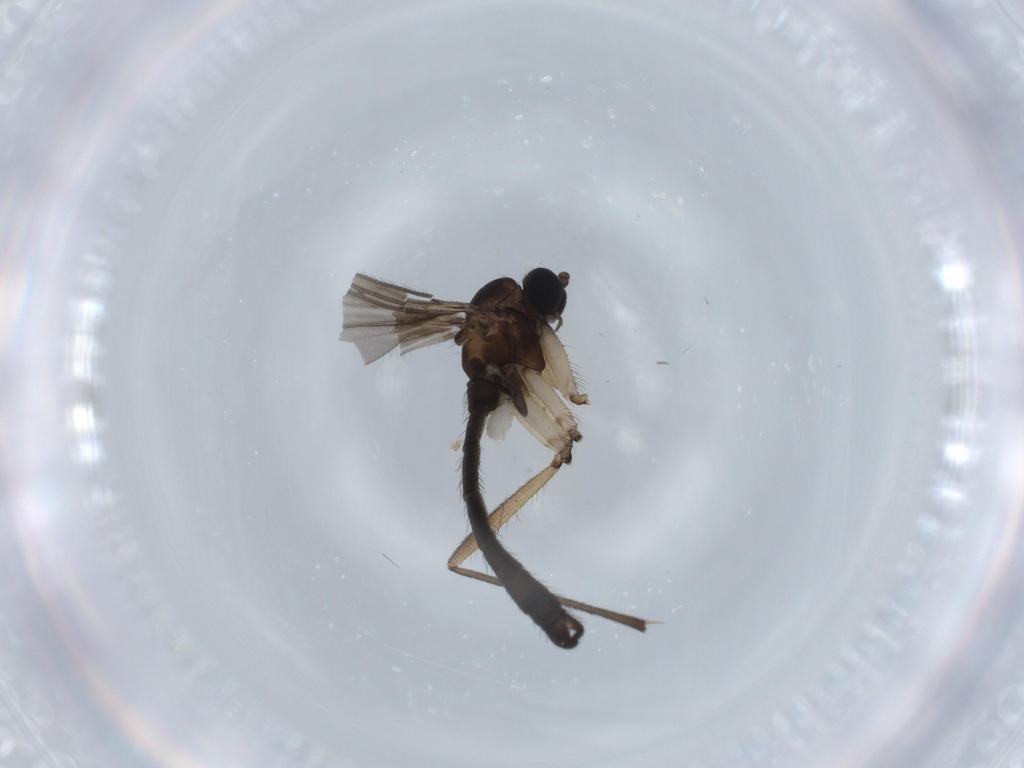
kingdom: Animalia
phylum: Arthropoda
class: Insecta
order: Diptera
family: Sciaridae
